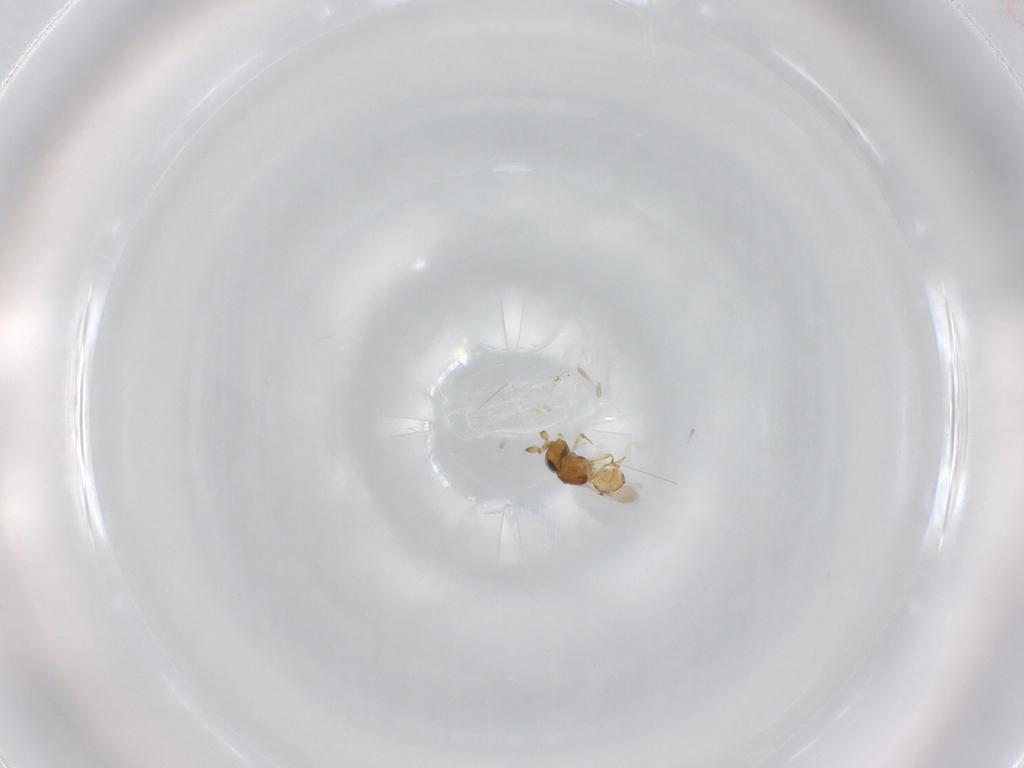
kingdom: Animalia
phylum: Arthropoda
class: Insecta
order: Hymenoptera
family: Scelionidae
